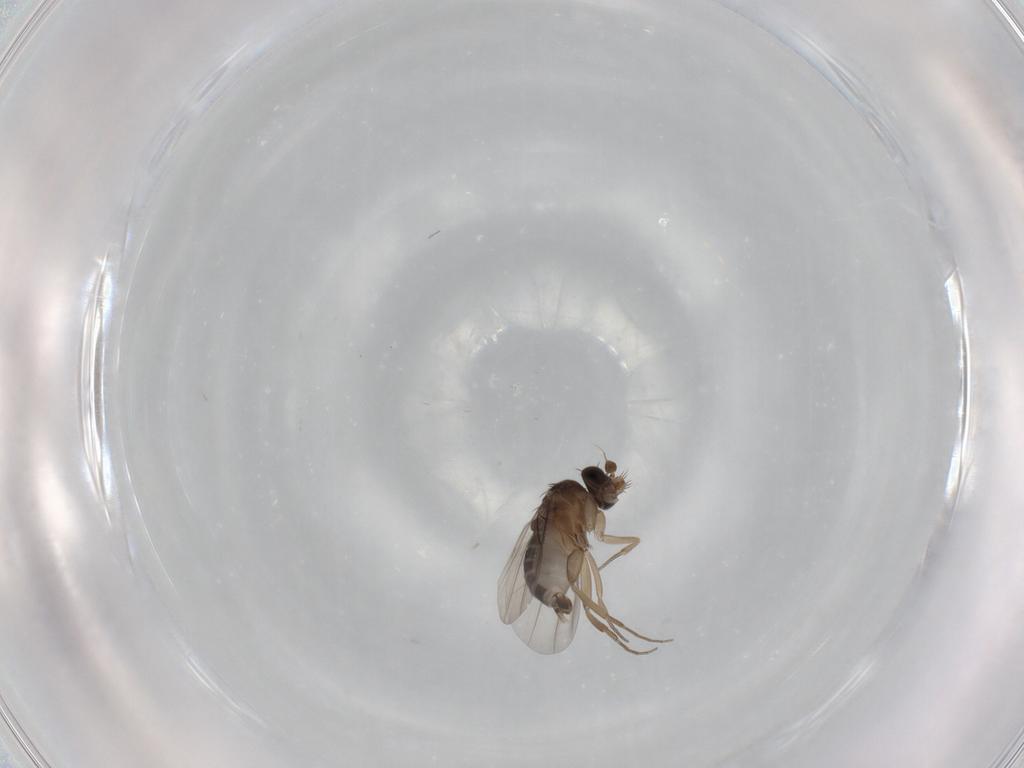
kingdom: Animalia
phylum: Arthropoda
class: Insecta
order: Diptera
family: Phoridae
